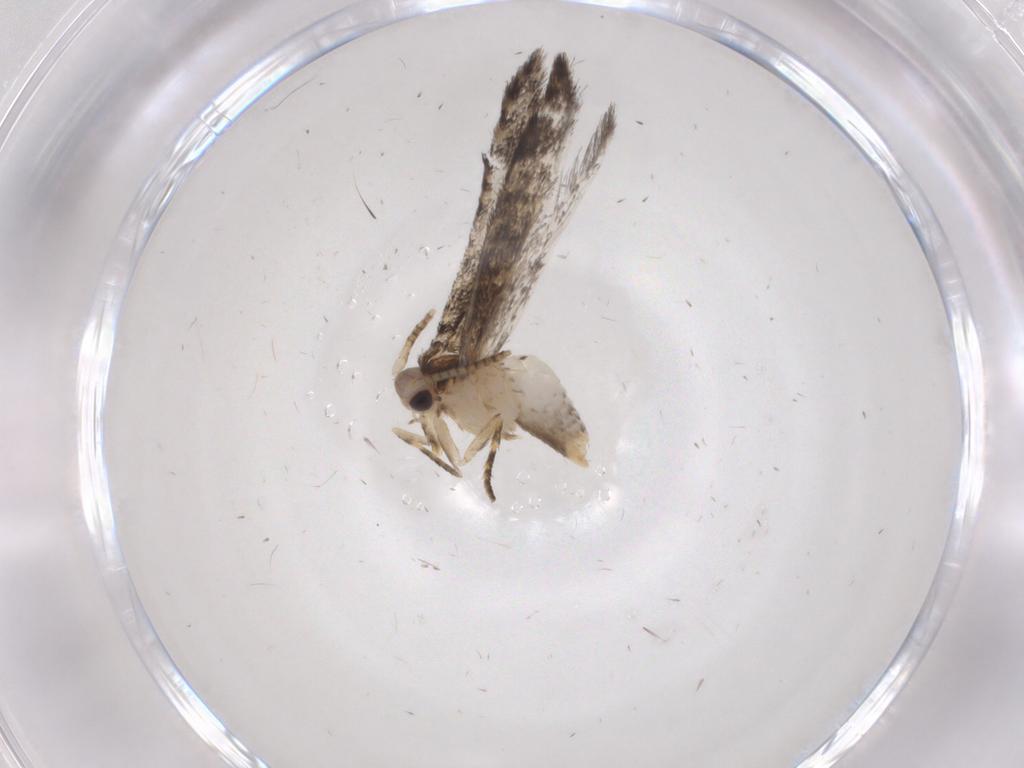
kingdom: Animalia
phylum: Arthropoda
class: Insecta
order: Lepidoptera
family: Tineidae
